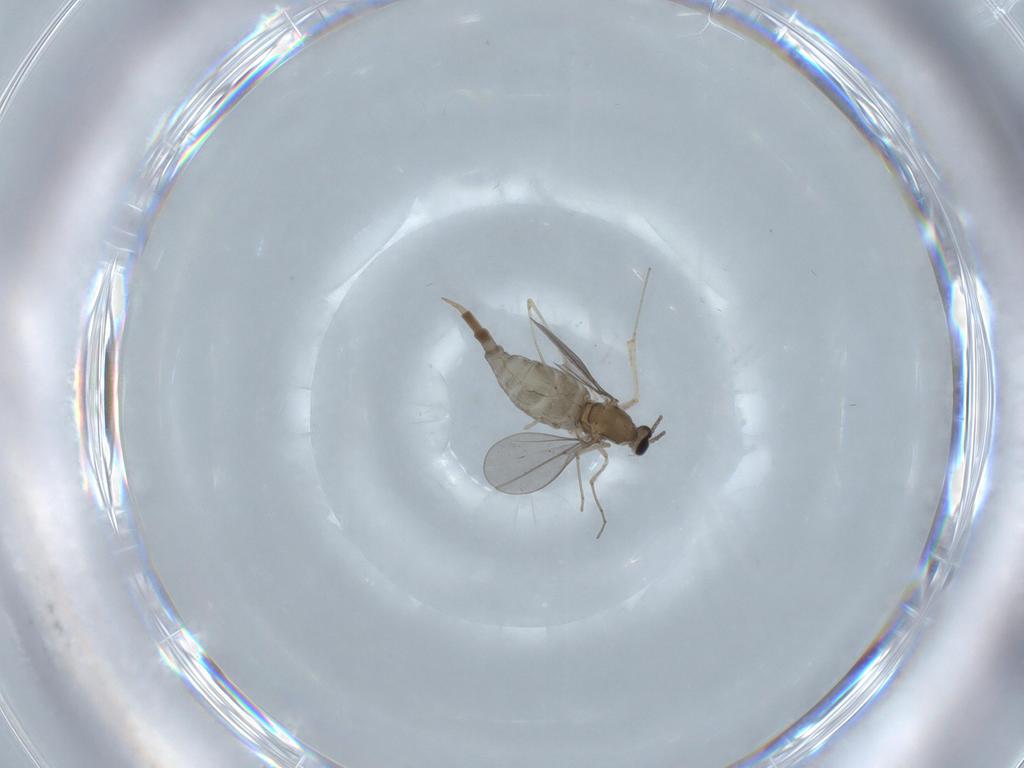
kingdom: Animalia
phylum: Arthropoda
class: Insecta
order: Diptera
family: Cecidomyiidae
